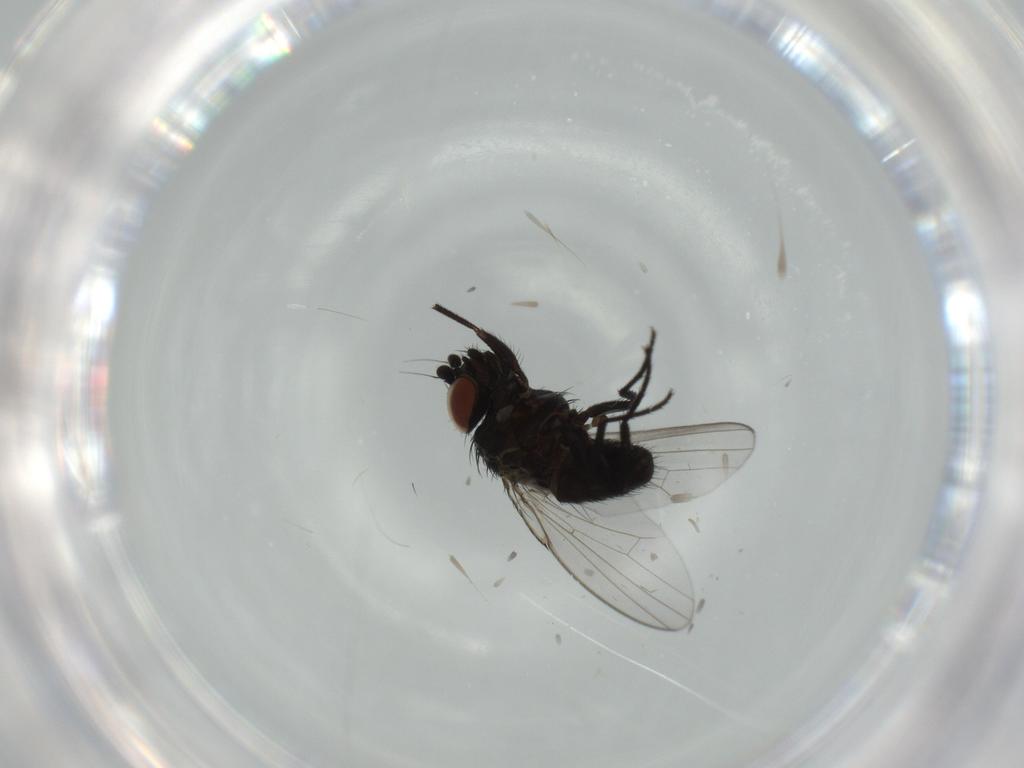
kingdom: Animalia
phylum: Arthropoda
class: Insecta
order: Diptera
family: Milichiidae
